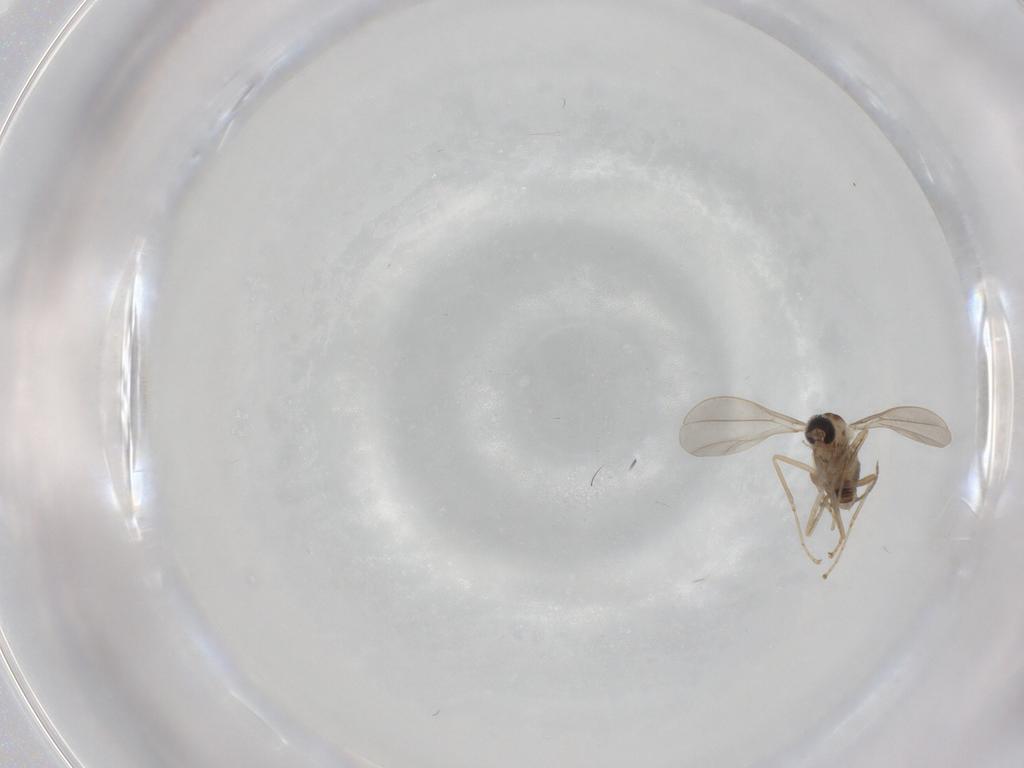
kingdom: Animalia
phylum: Arthropoda
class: Insecta
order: Diptera
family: Cecidomyiidae
